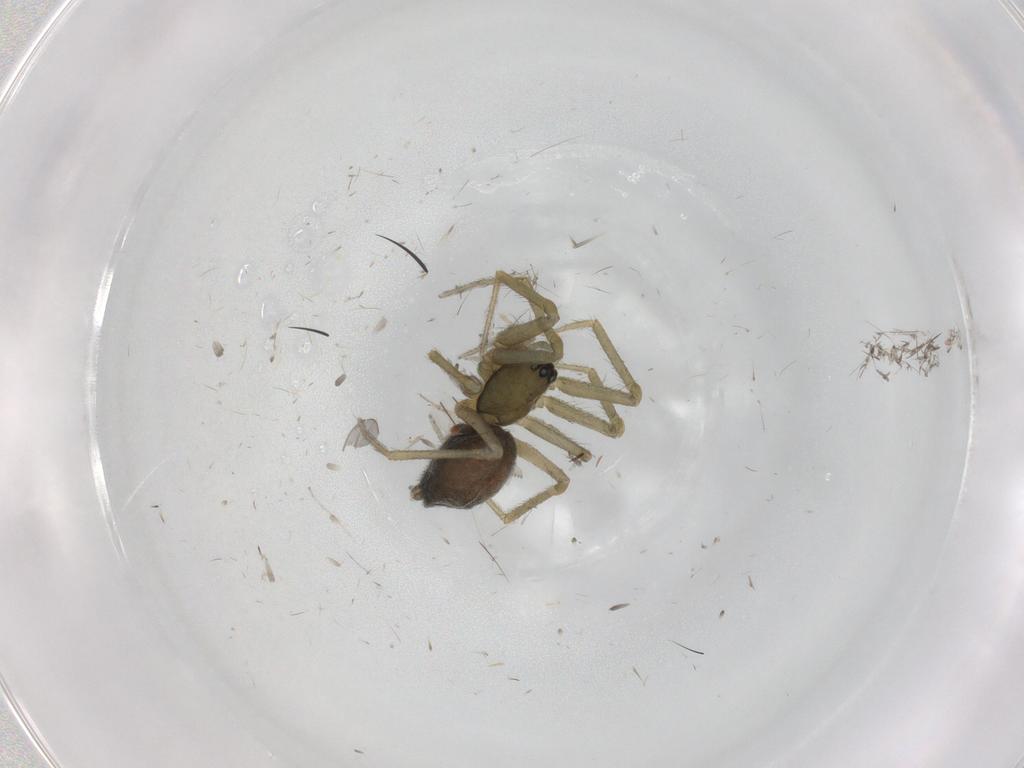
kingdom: Animalia
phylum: Arthropoda
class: Arachnida
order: Araneae
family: Linyphiidae
